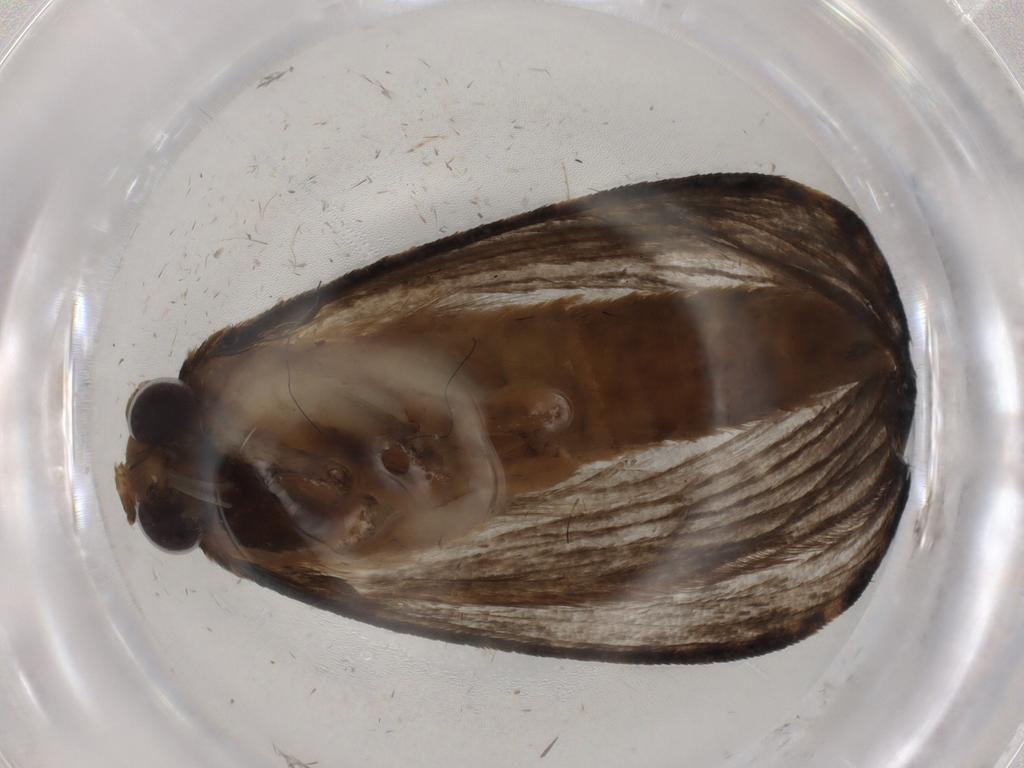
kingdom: Animalia
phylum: Arthropoda
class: Insecta
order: Lepidoptera
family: Tineidae
